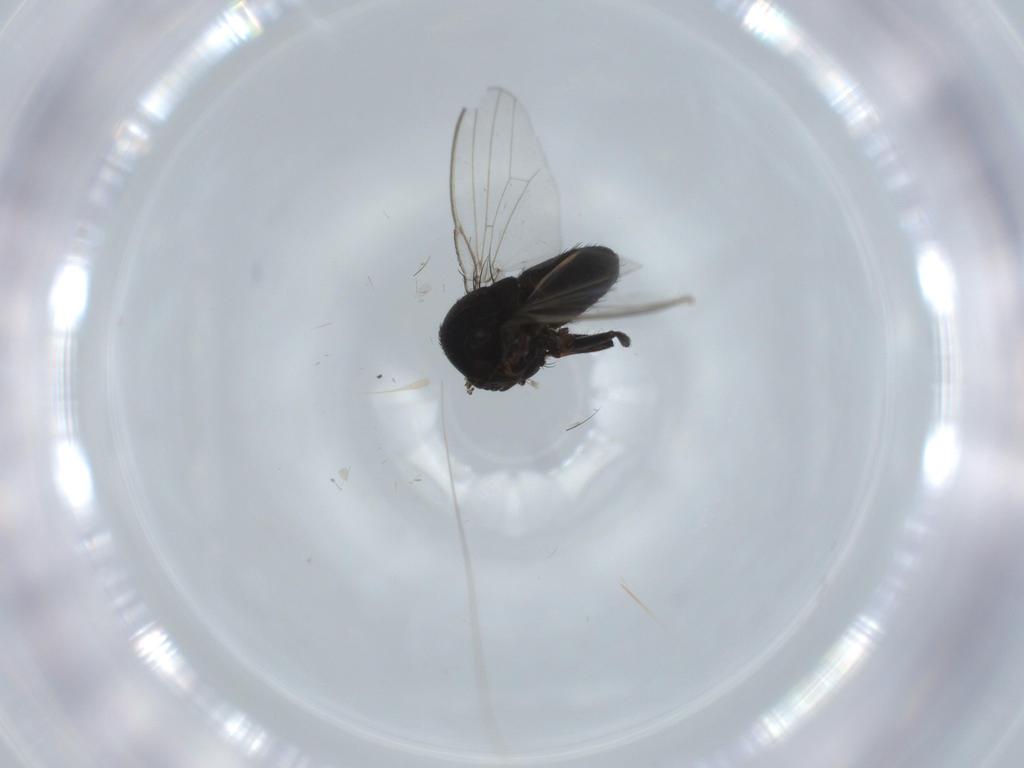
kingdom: Animalia
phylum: Arthropoda
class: Insecta
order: Diptera
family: Milichiidae
